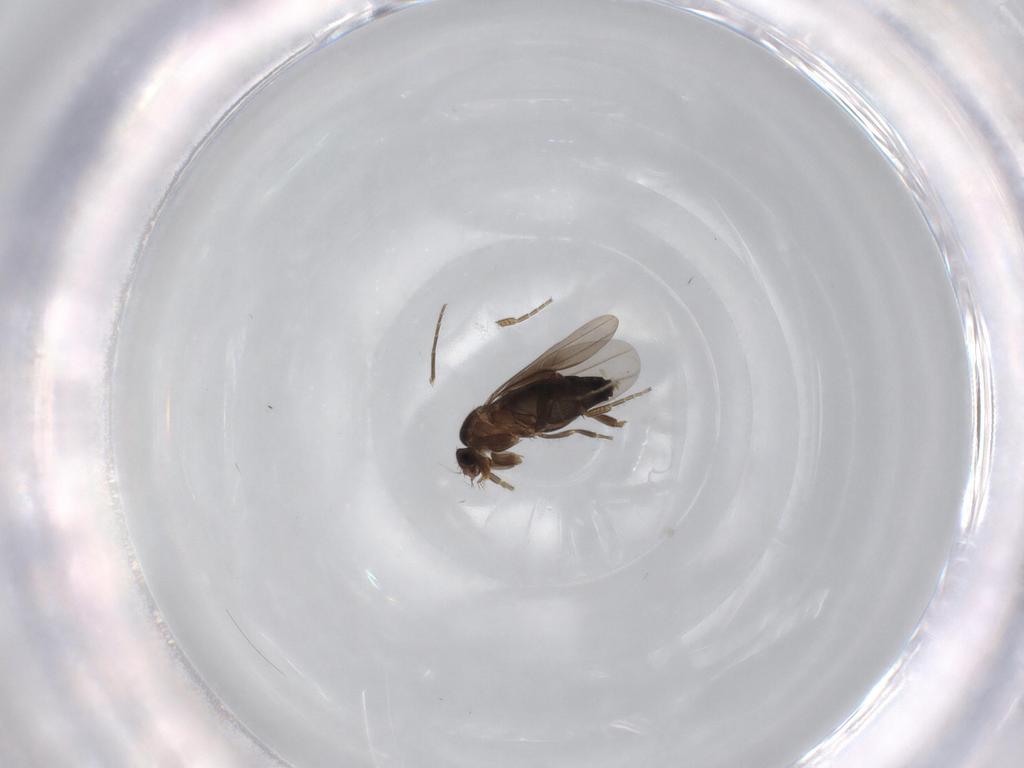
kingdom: Animalia
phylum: Arthropoda
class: Insecta
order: Diptera
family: Phoridae
